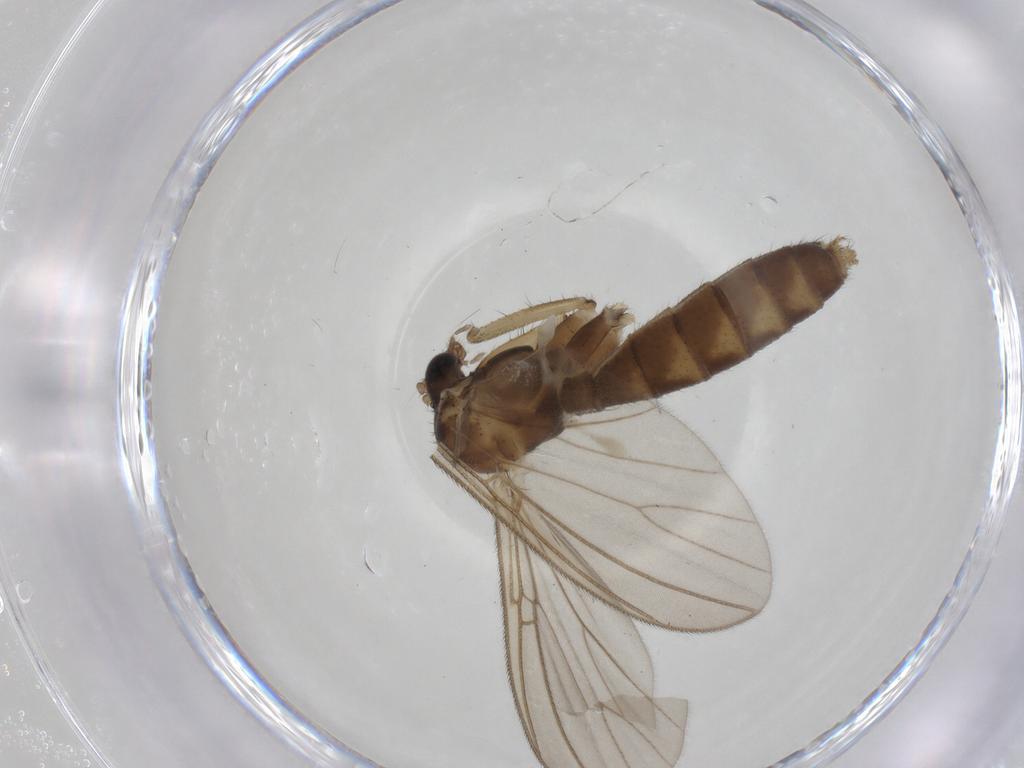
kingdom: Animalia
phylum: Arthropoda
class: Insecta
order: Diptera
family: Mycetophilidae
